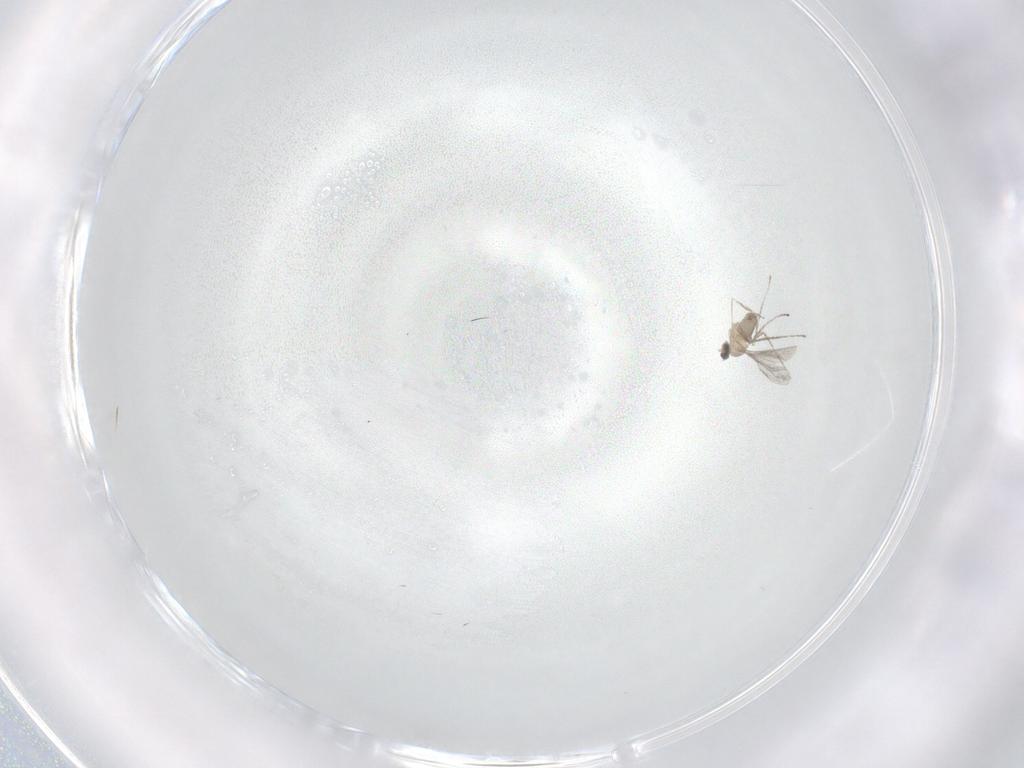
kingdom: Animalia
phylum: Arthropoda
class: Insecta
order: Diptera
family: Cecidomyiidae
